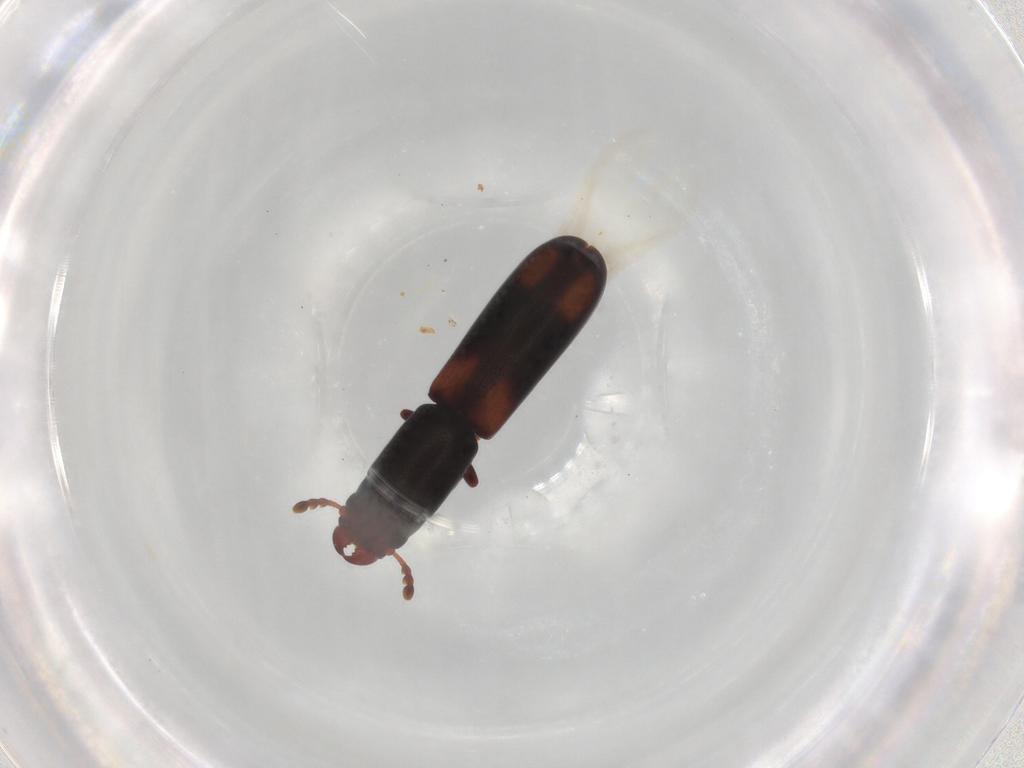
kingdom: Animalia
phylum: Arthropoda
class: Insecta
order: Coleoptera
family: Curculionidae
